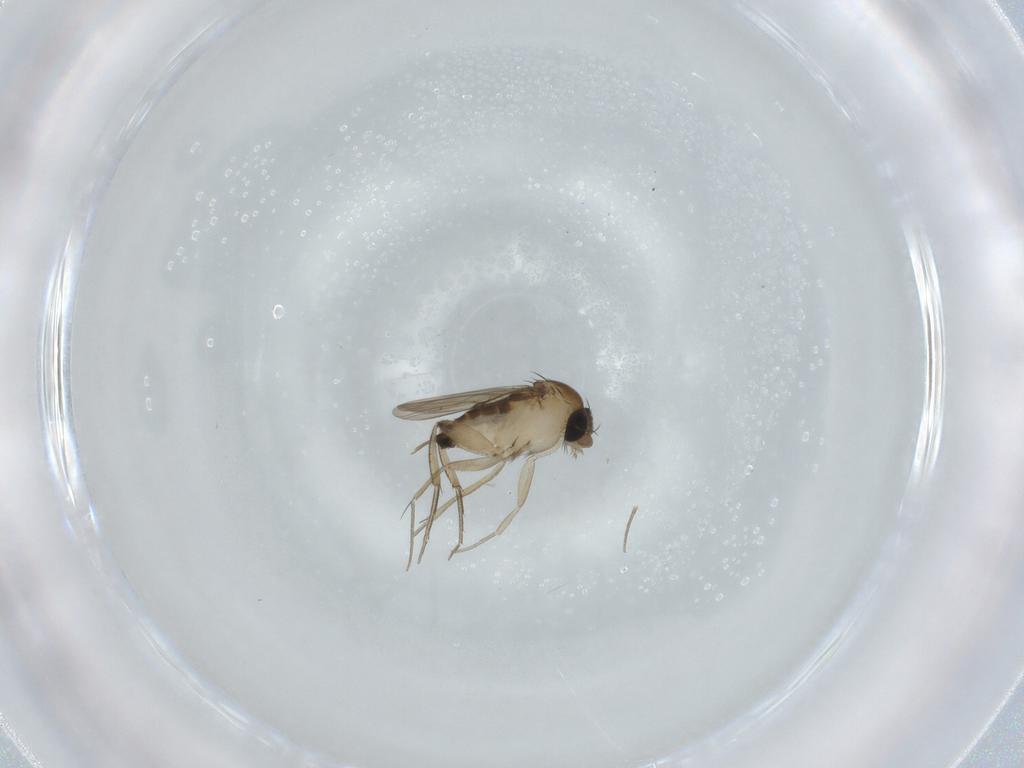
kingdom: Animalia
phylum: Arthropoda
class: Insecta
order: Diptera
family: Phoridae
